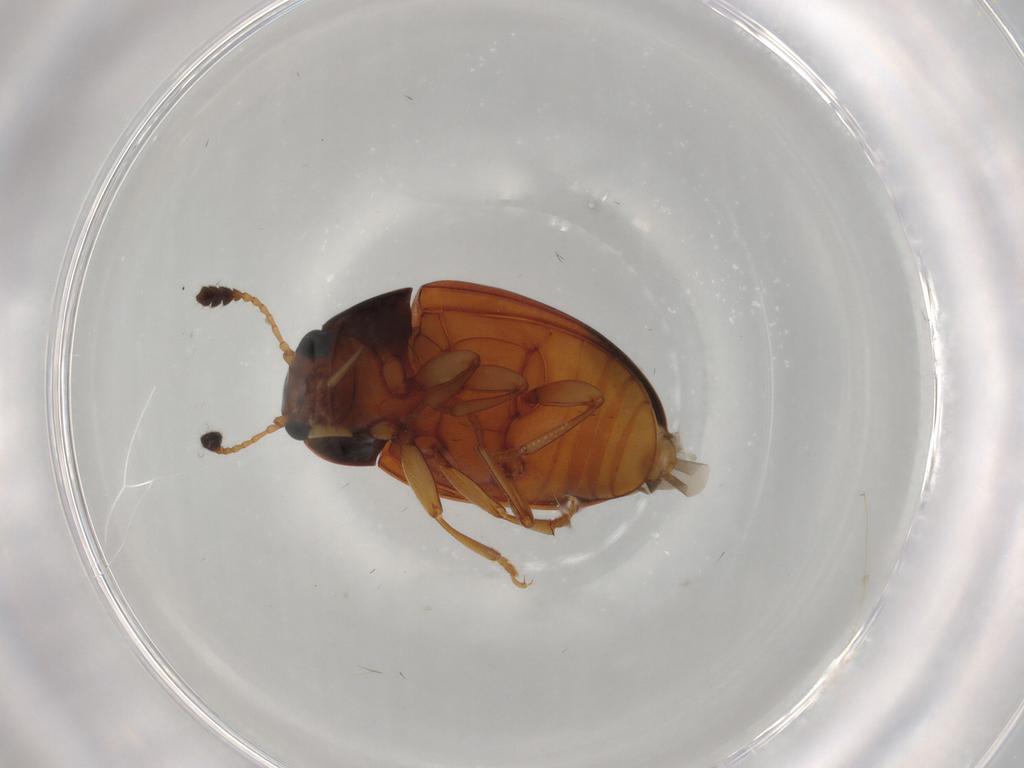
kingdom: Animalia
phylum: Arthropoda
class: Insecta
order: Coleoptera
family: Erotylidae
